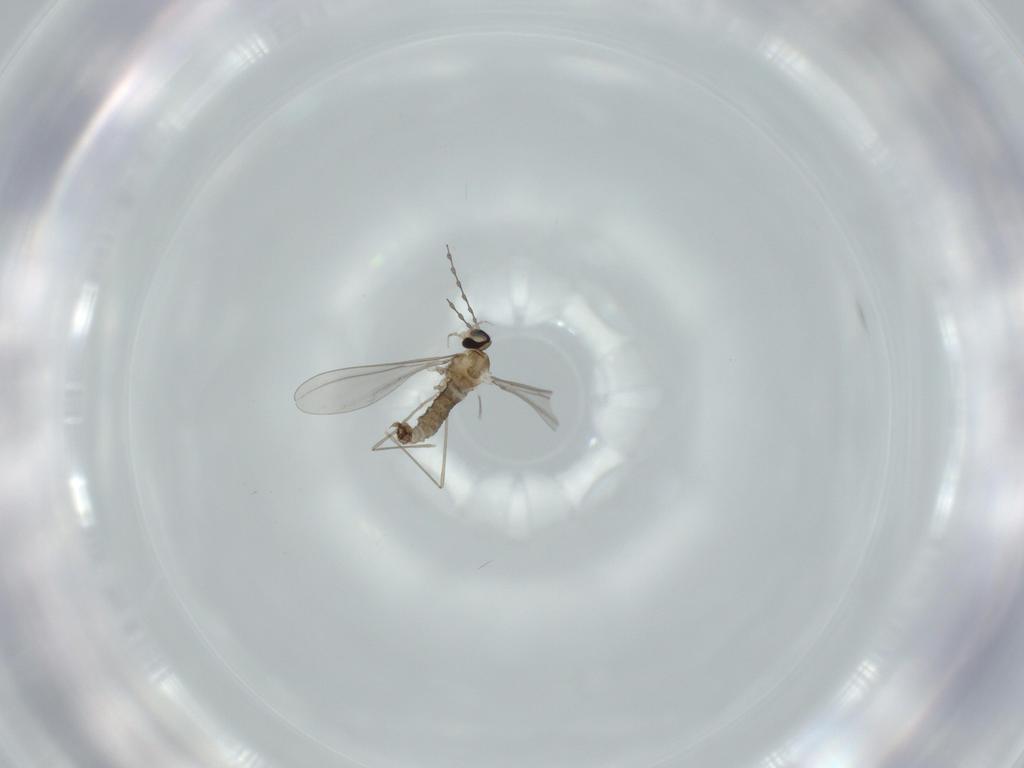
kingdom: Animalia
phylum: Arthropoda
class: Insecta
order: Diptera
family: Cecidomyiidae
